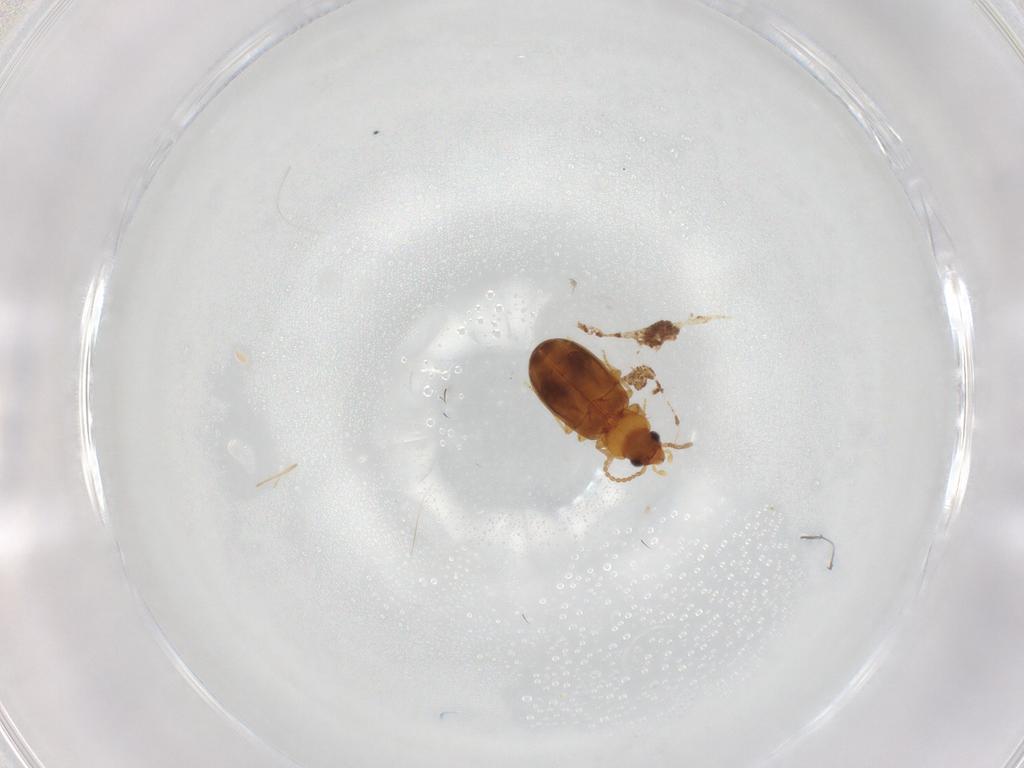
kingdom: Animalia
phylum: Arthropoda
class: Insecta
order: Coleoptera
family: Carabidae
